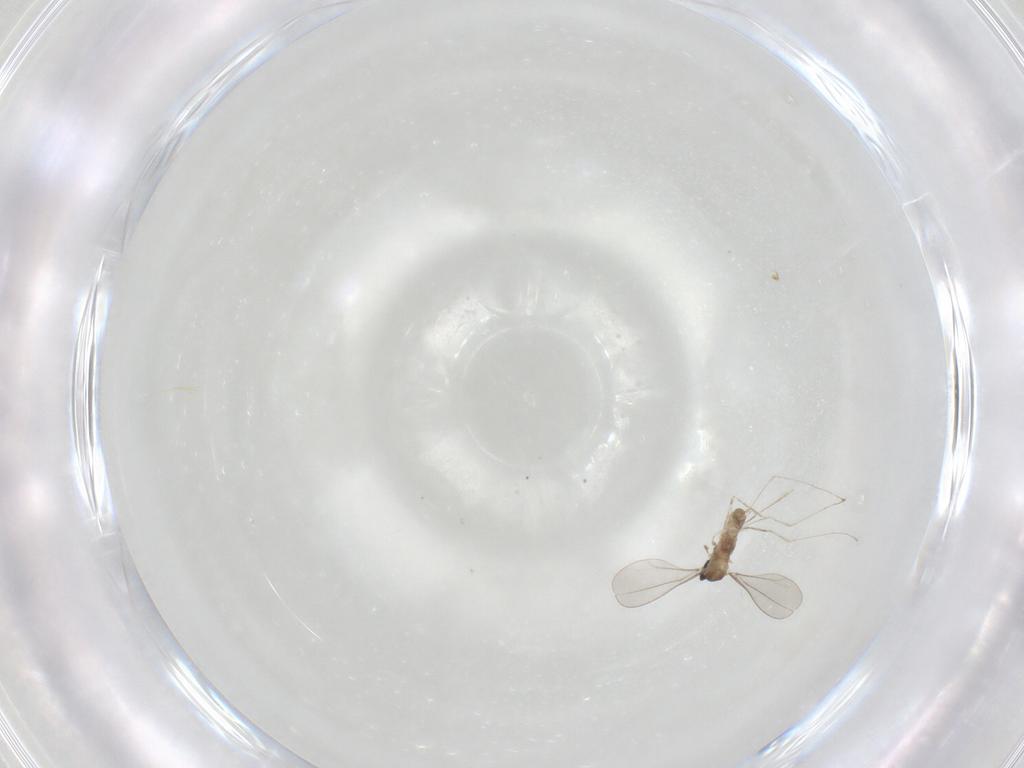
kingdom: Animalia
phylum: Arthropoda
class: Insecta
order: Diptera
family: Cecidomyiidae
